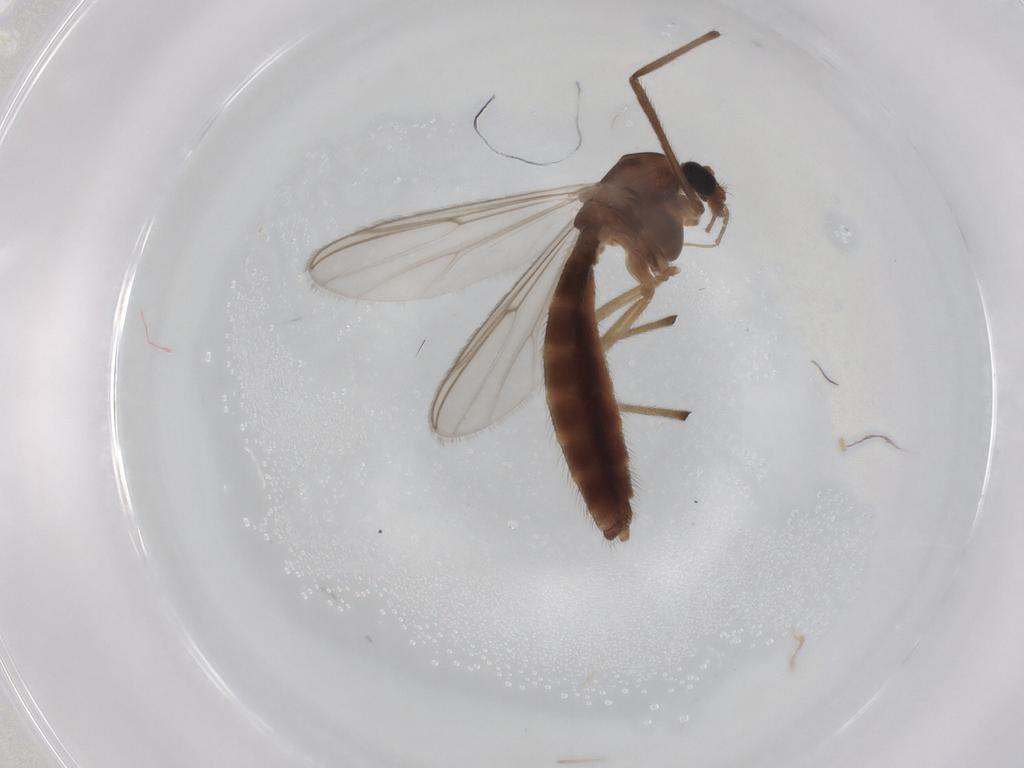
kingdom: Animalia
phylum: Arthropoda
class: Insecta
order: Diptera
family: Chironomidae
